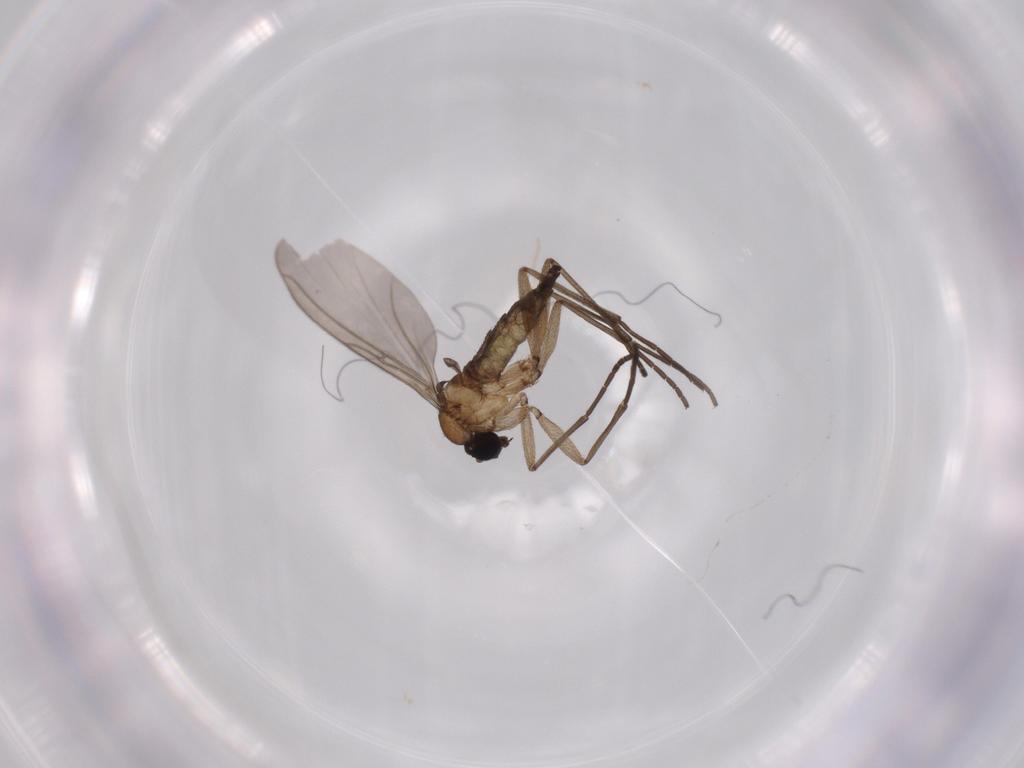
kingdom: Animalia
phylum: Arthropoda
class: Insecta
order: Diptera
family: Sciaridae
